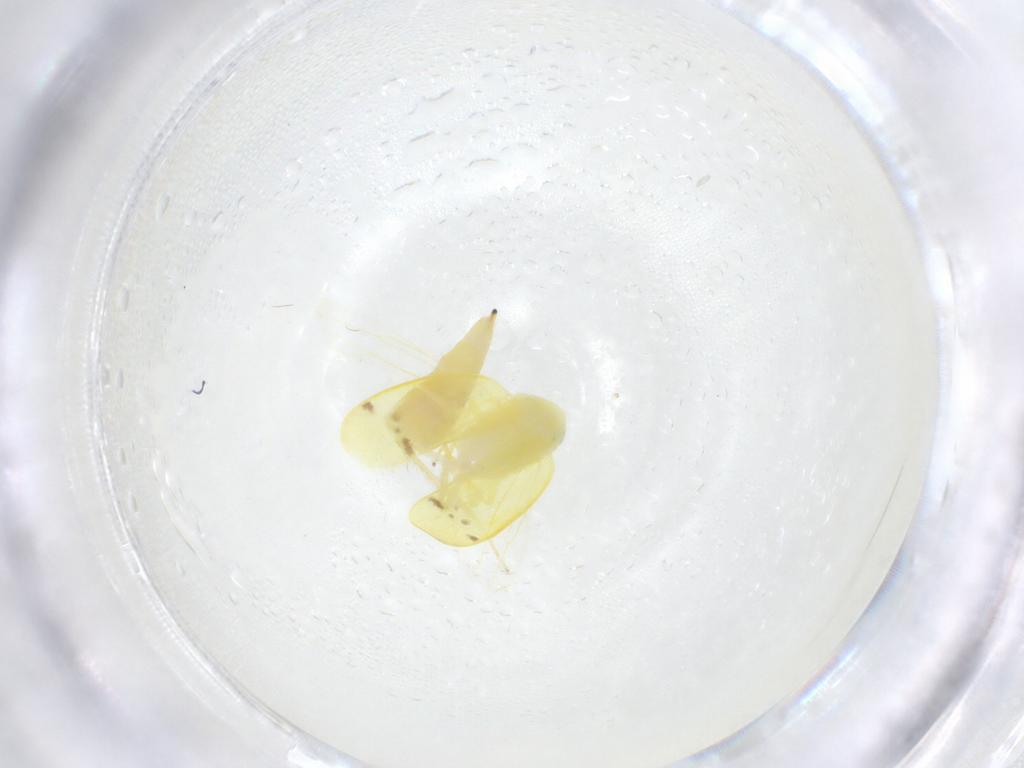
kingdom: Animalia
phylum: Arthropoda
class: Insecta
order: Hemiptera
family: Cicadellidae
